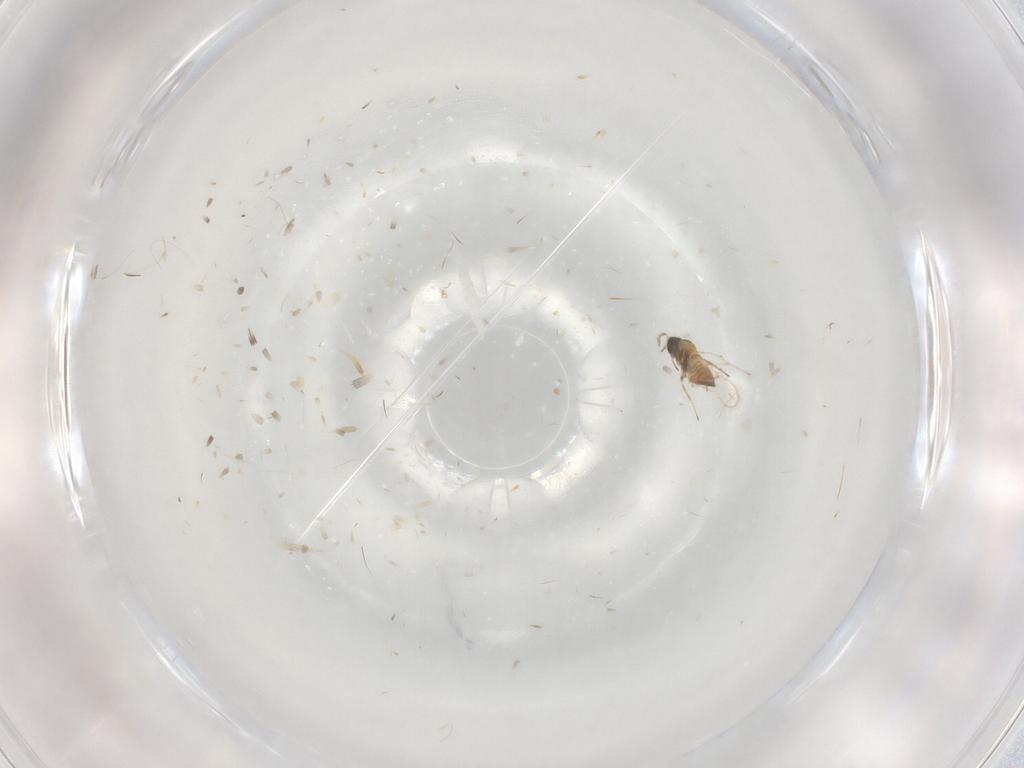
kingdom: Animalia
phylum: Arthropoda
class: Insecta
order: Hymenoptera
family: Trichogrammatidae
